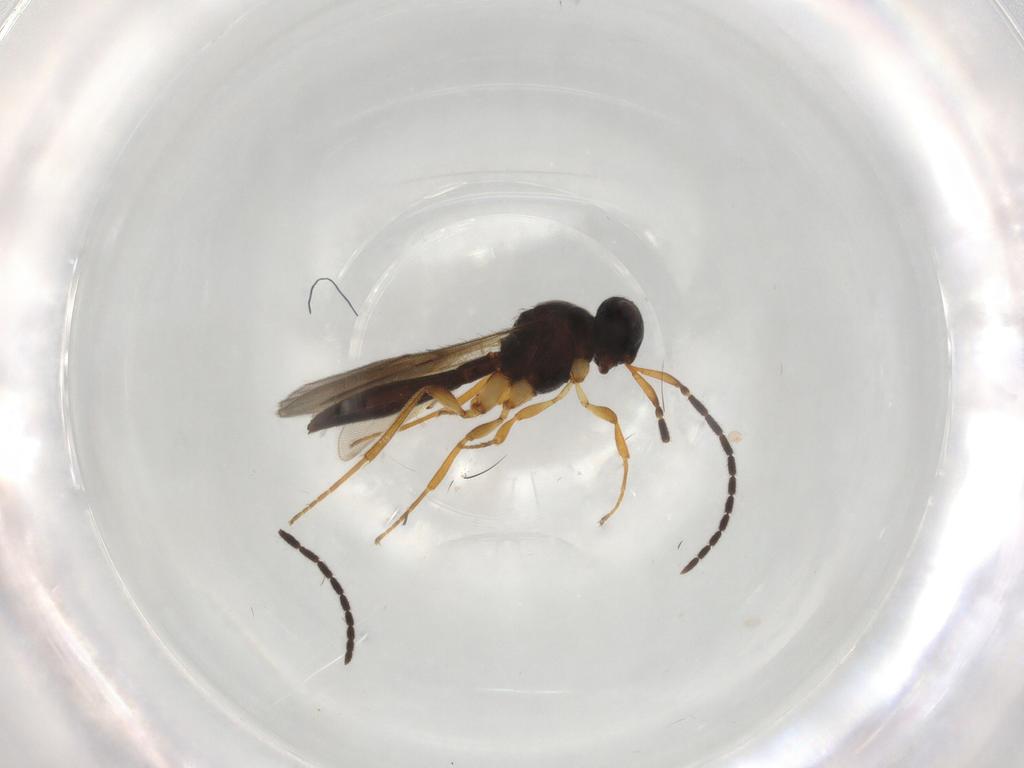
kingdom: Animalia
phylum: Arthropoda
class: Insecta
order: Hymenoptera
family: Scelionidae
